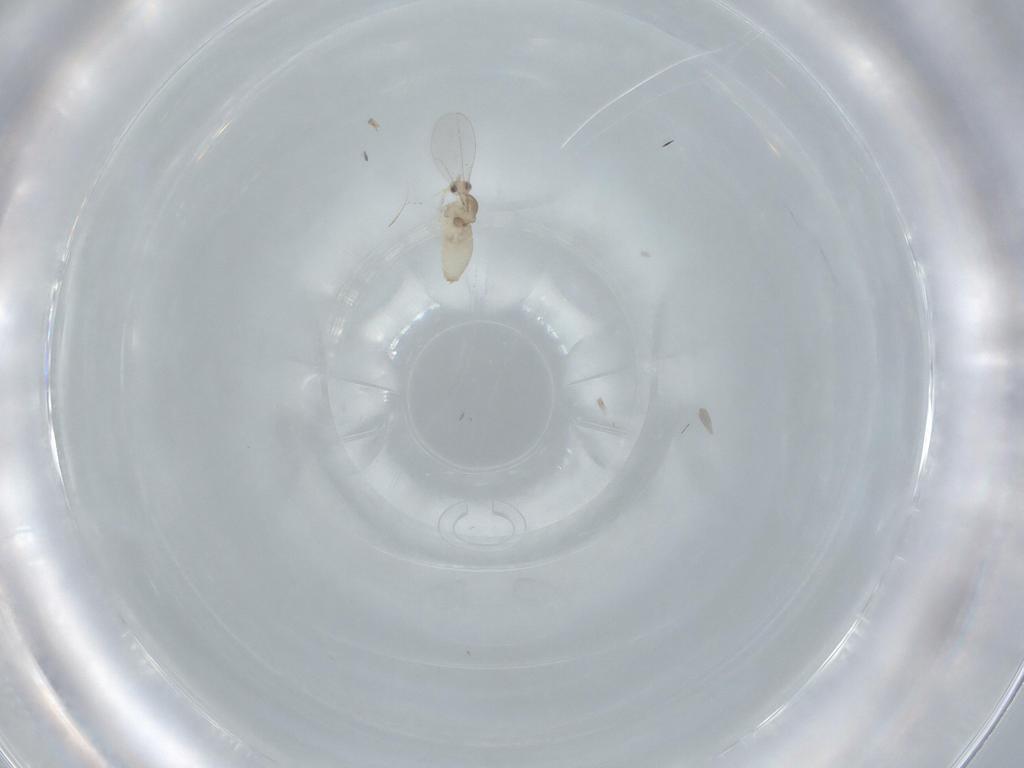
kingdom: Animalia
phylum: Arthropoda
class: Insecta
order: Diptera
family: Cecidomyiidae
